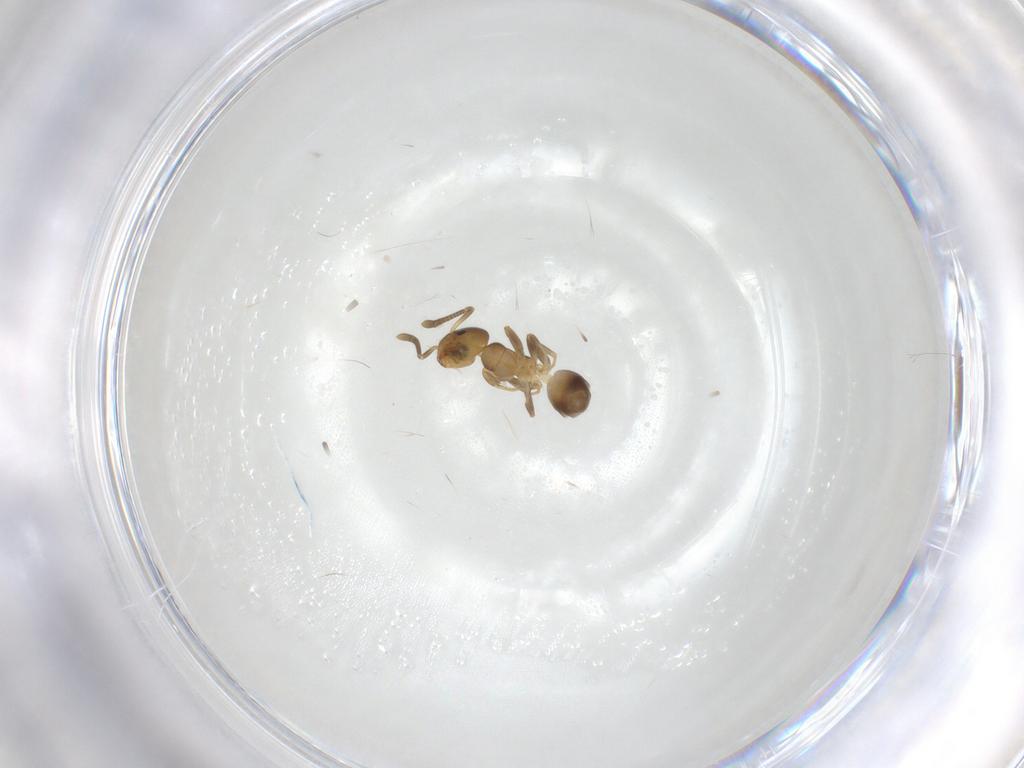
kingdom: Animalia
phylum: Arthropoda
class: Insecta
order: Hymenoptera
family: Formicidae
